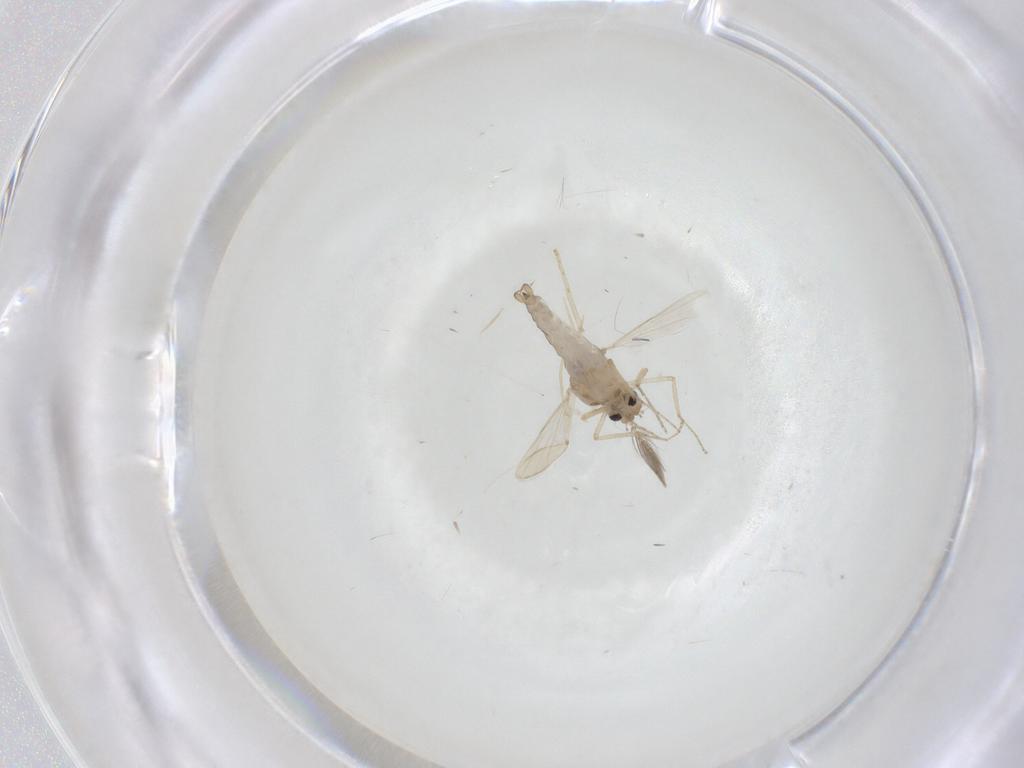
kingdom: Animalia
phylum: Arthropoda
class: Insecta
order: Diptera
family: Ceratopogonidae
